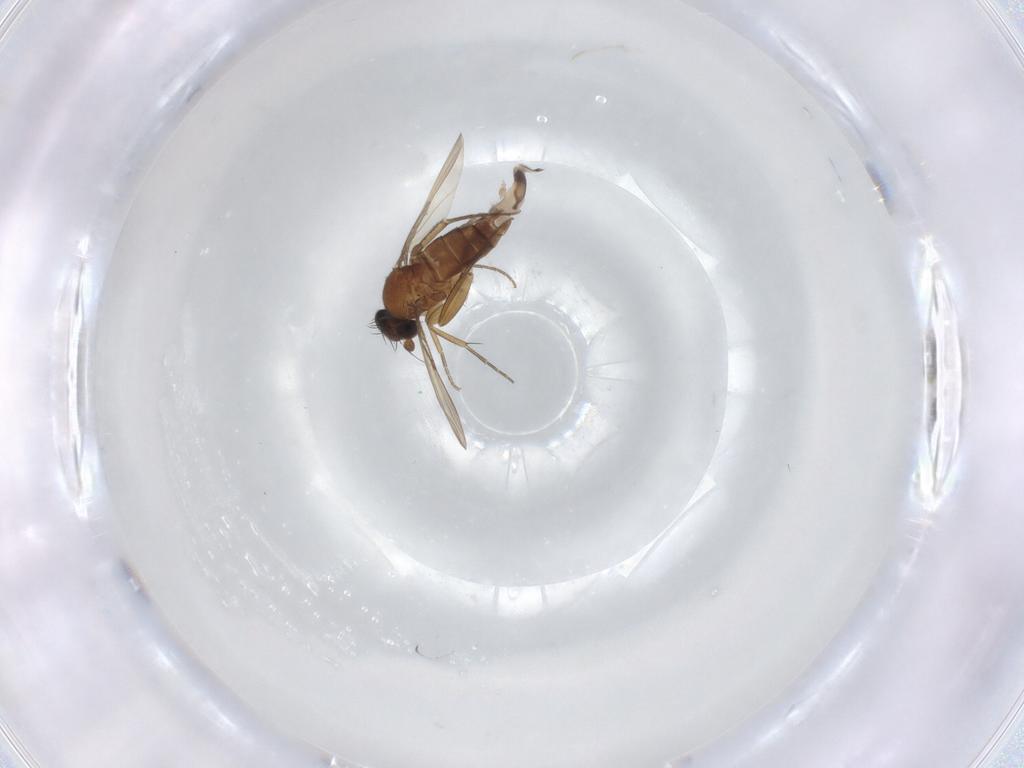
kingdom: Animalia
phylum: Arthropoda
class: Insecta
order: Diptera
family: Phoridae
